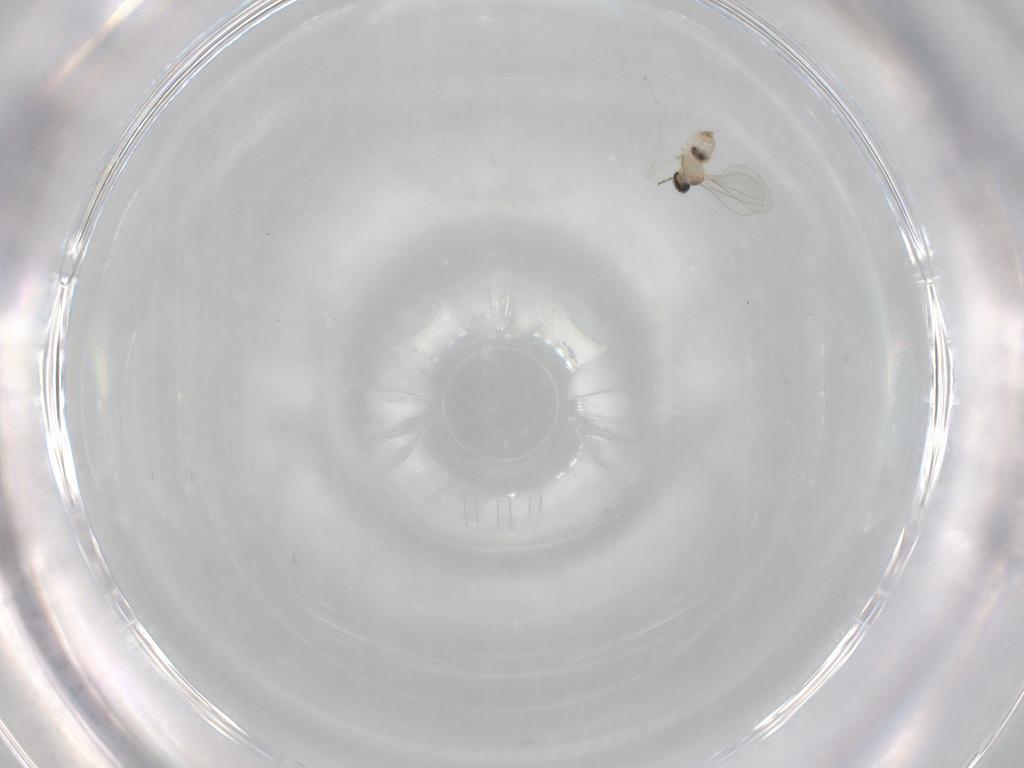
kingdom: Animalia
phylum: Arthropoda
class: Insecta
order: Diptera
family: Cecidomyiidae
